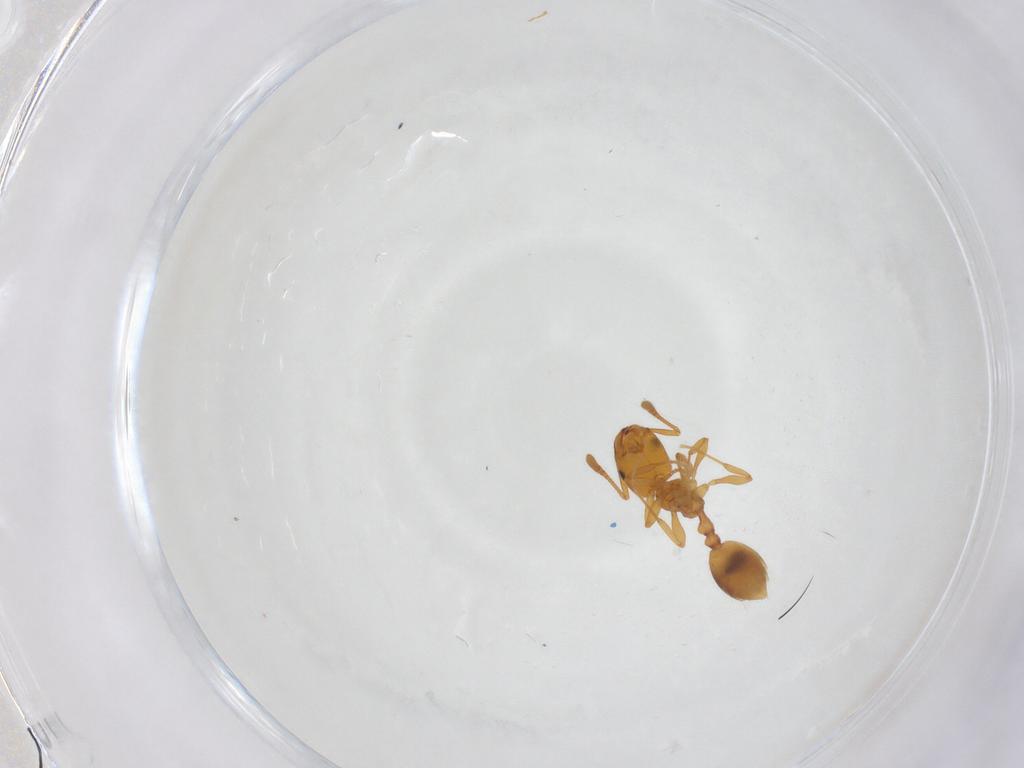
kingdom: Animalia
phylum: Arthropoda
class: Insecta
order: Hymenoptera
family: Formicidae
